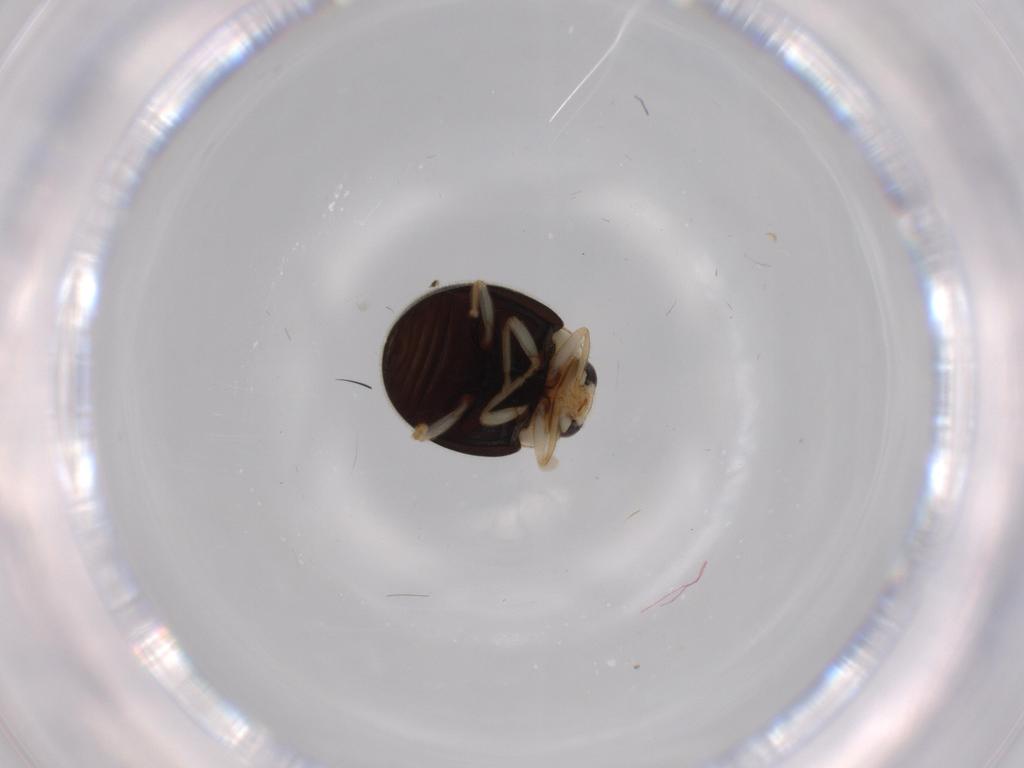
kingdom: Animalia
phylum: Arthropoda
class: Insecta
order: Coleoptera
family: Coccinellidae
